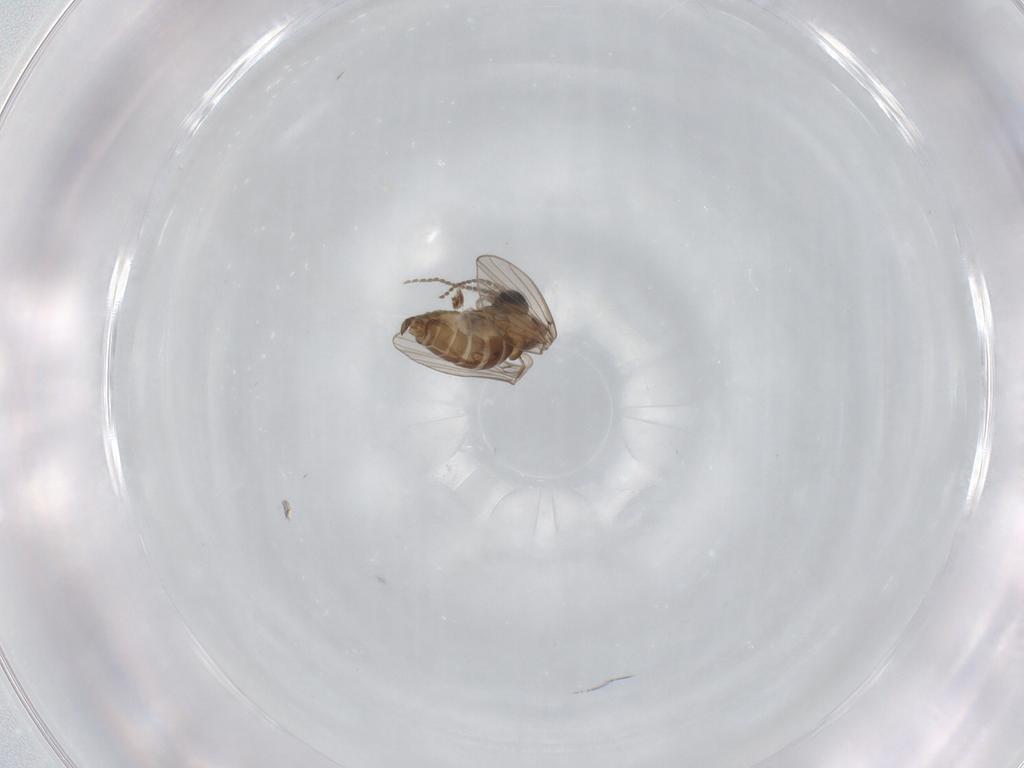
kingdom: Animalia
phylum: Arthropoda
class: Insecta
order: Diptera
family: Psychodidae
